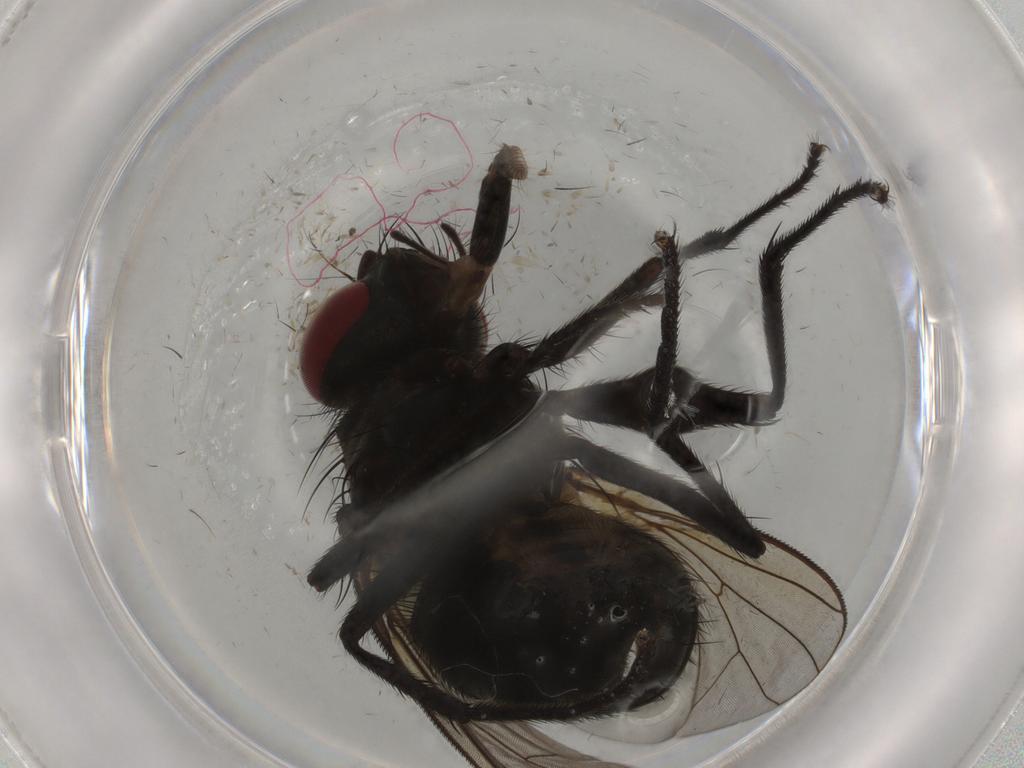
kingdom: Animalia
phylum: Arthropoda
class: Insecta
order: Diptera
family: Muscidae
